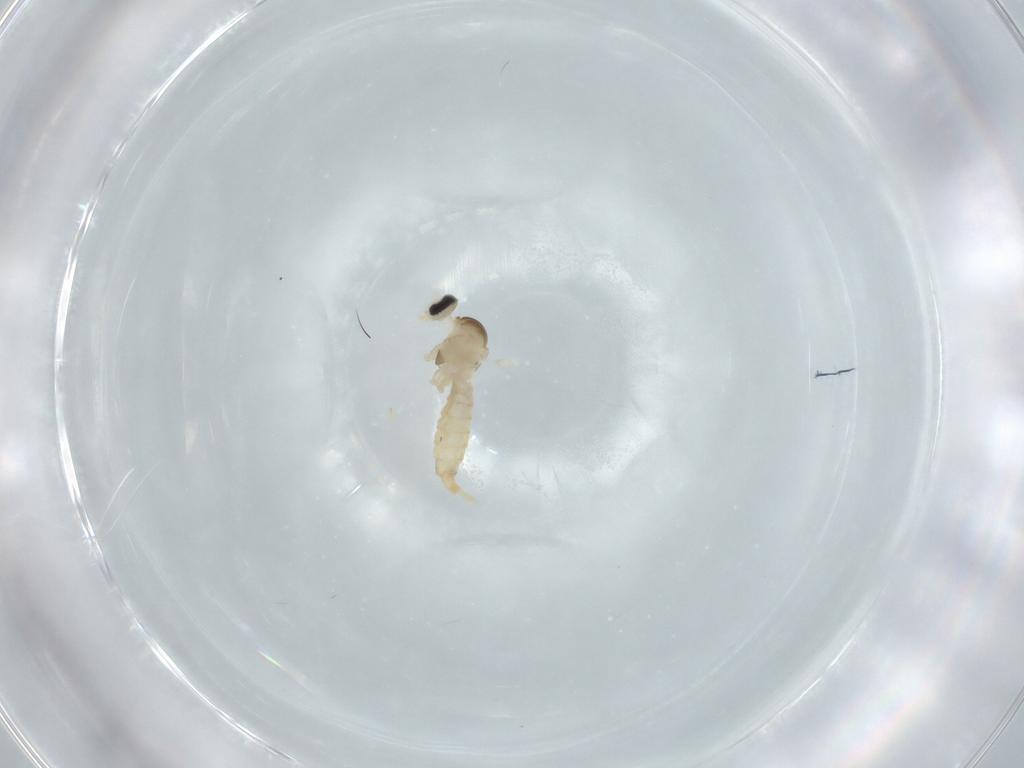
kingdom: Animalia
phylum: Arthropoda
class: Insecta
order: Diptera
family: Cecidomyiidae
